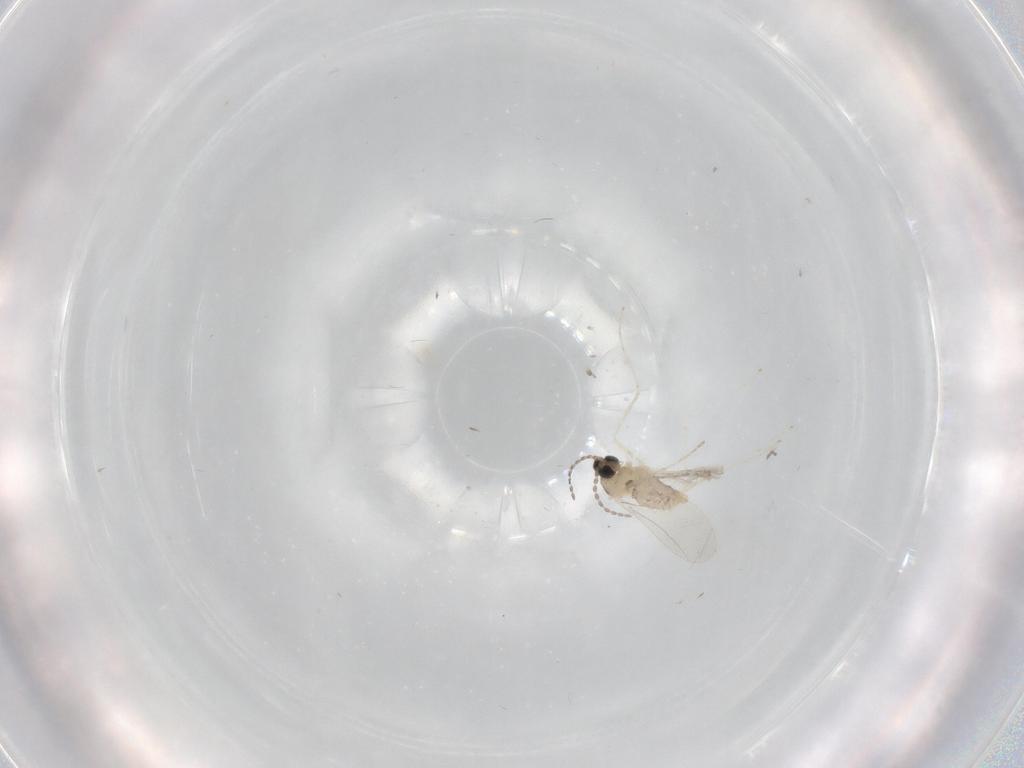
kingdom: Animalia
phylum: Arthropoda
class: Insecta
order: Diptera
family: Cecidomyiidae
